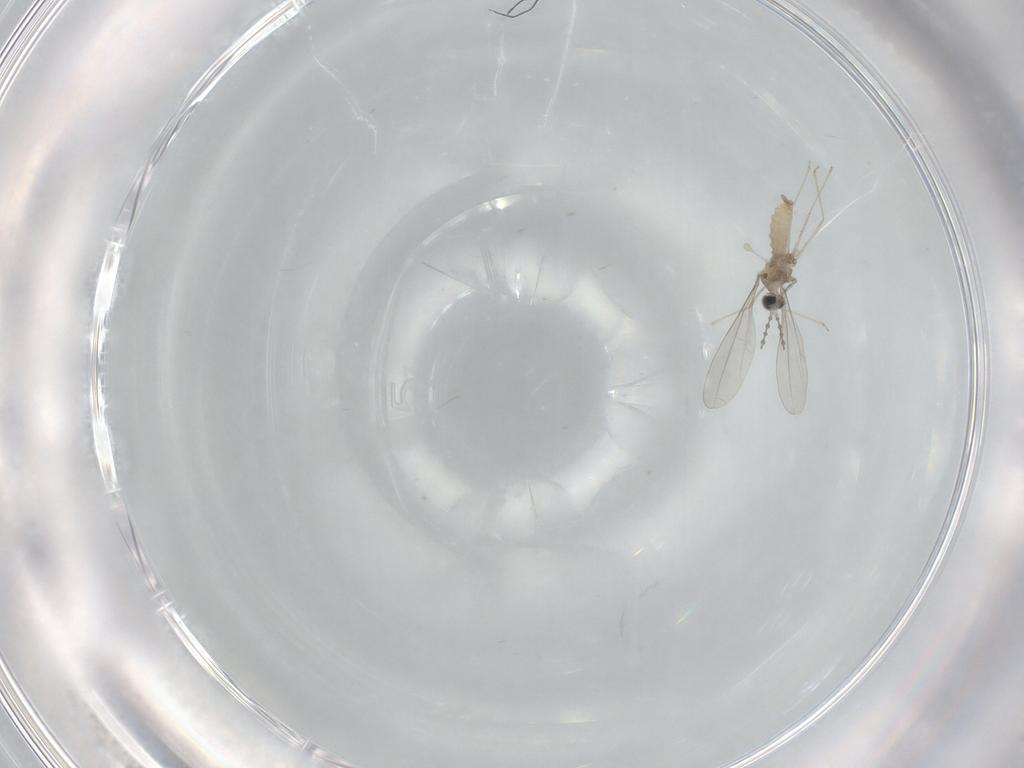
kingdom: Animalia
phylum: Arthropoda
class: Insecta
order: Diptera
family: Cecidomyiidae
